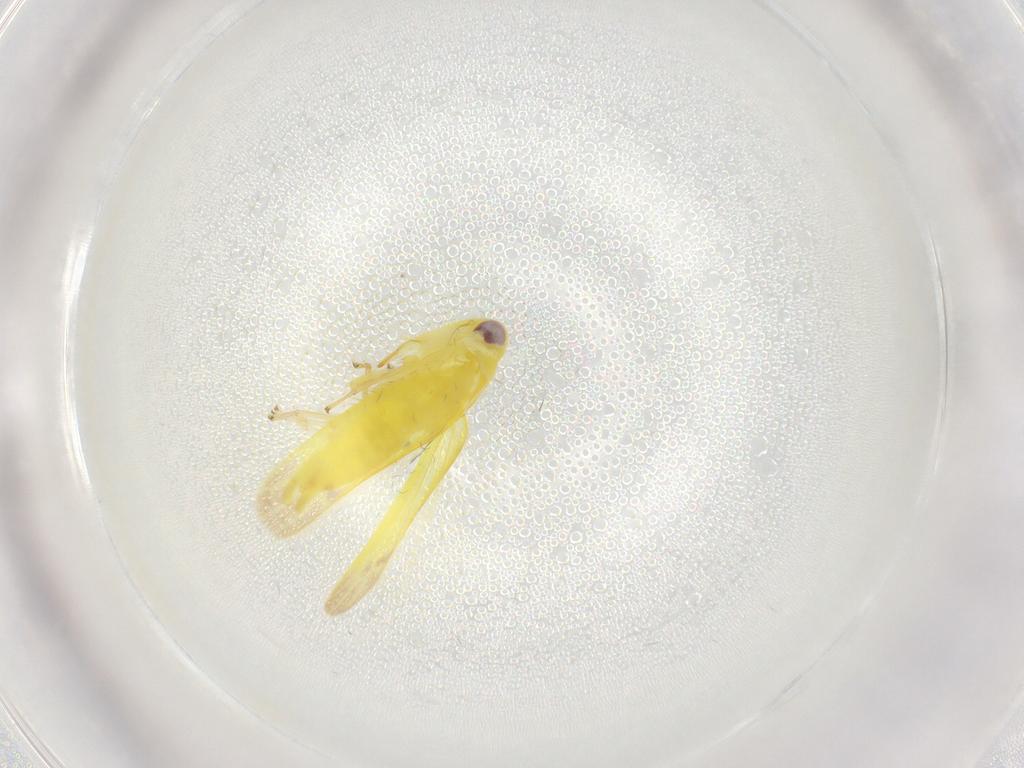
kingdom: Animalia
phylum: Arthropoda
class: Insecta
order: Hemiptera
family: Cicadellidae
